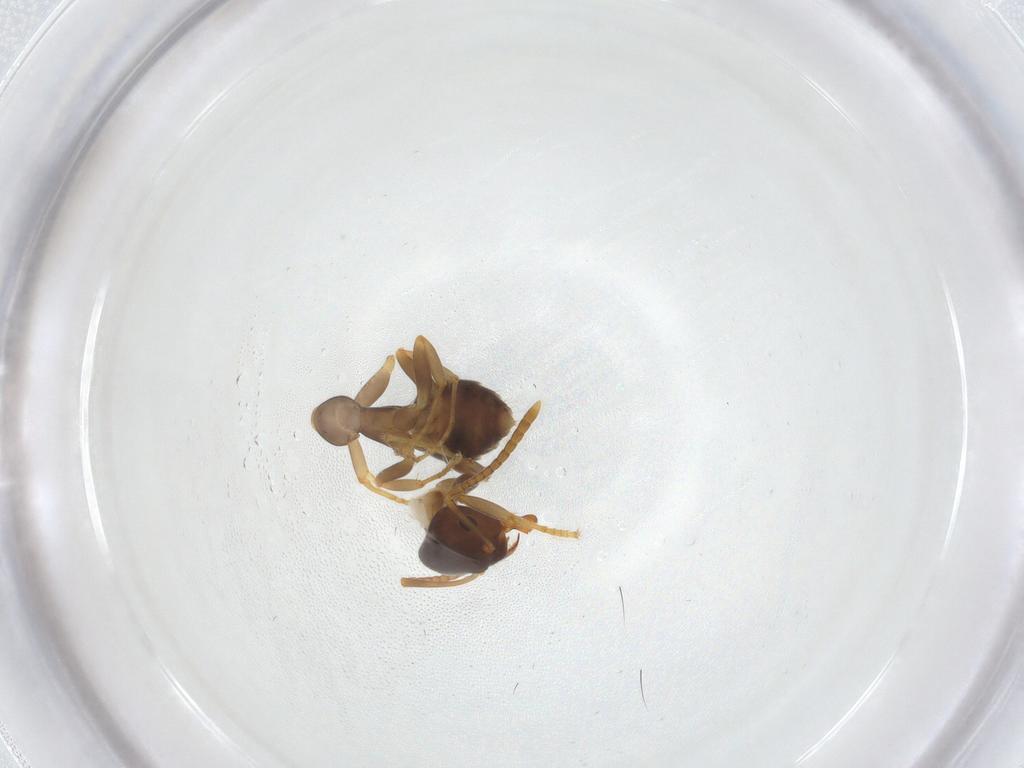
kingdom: Animalia
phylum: Arthropoda
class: Insecta
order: Hymenoptera
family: Formicidae
